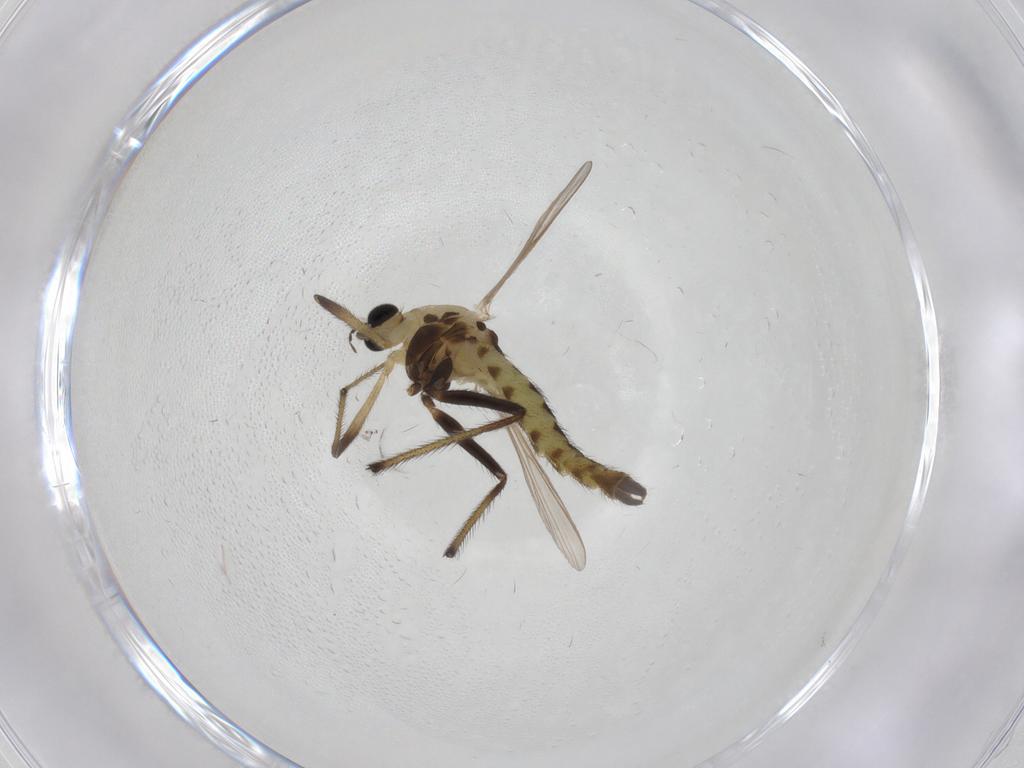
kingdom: Animalia
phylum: Arthropoda
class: Insecta
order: Diptera
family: Chironomidae
